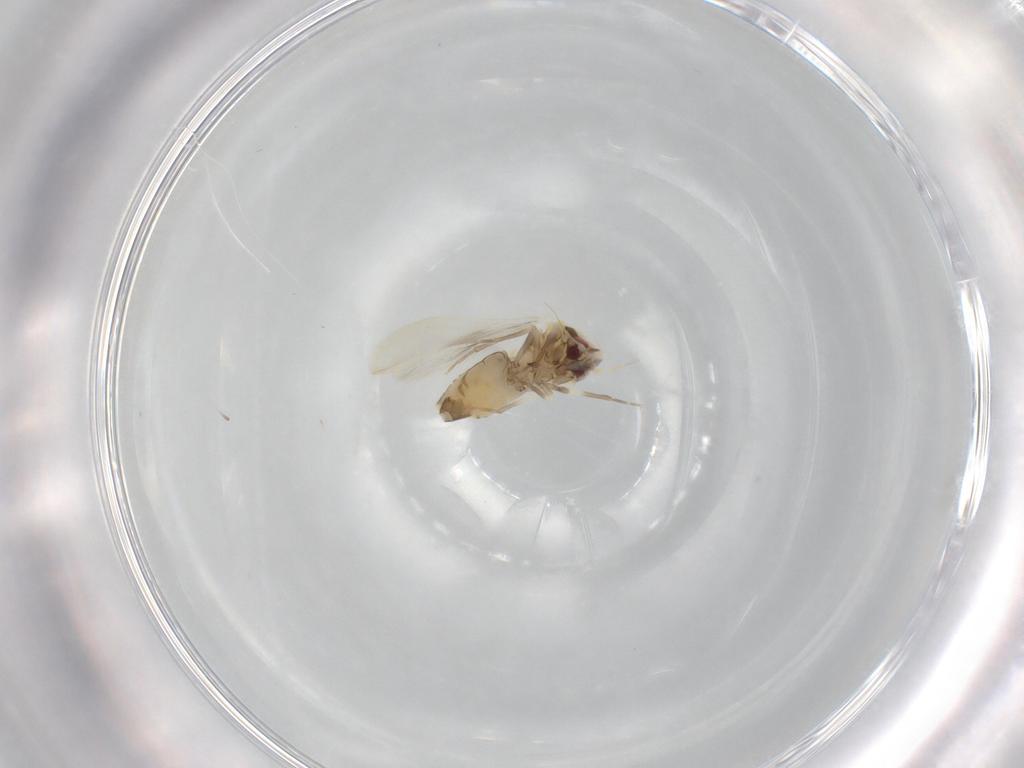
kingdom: Animalia
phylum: Arthropoda
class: Insecta
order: Hemiptera
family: Aleyrodidae
